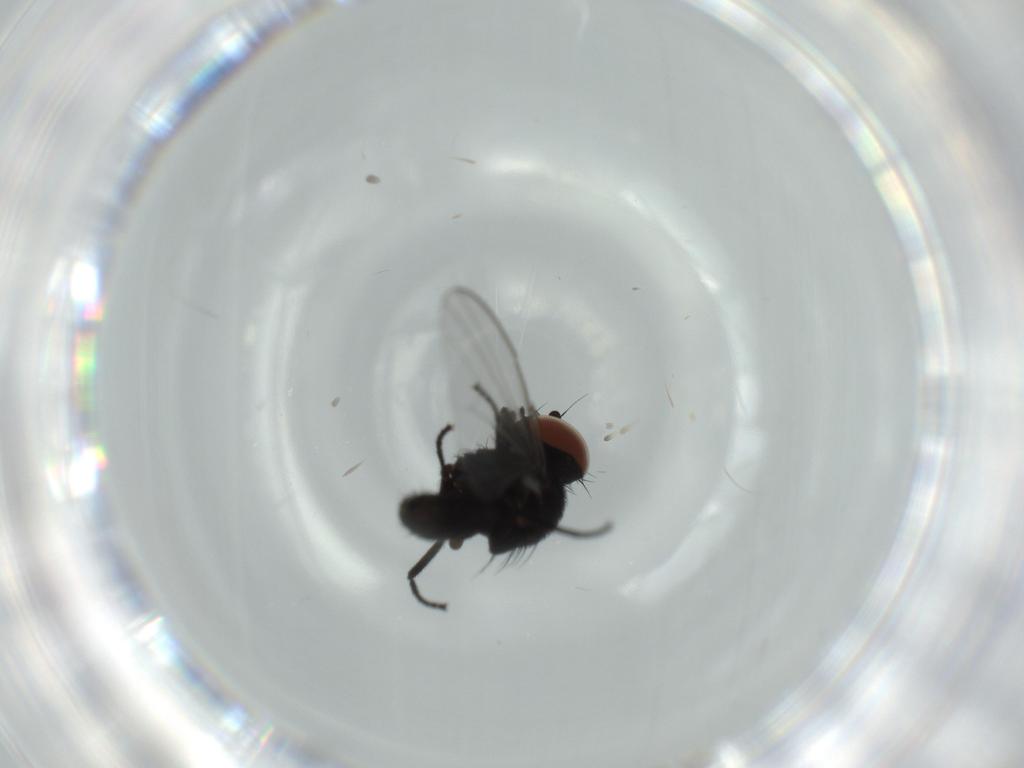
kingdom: Animalia
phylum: Arthropoda
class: Insecta
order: Diptera
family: Milichiidae
